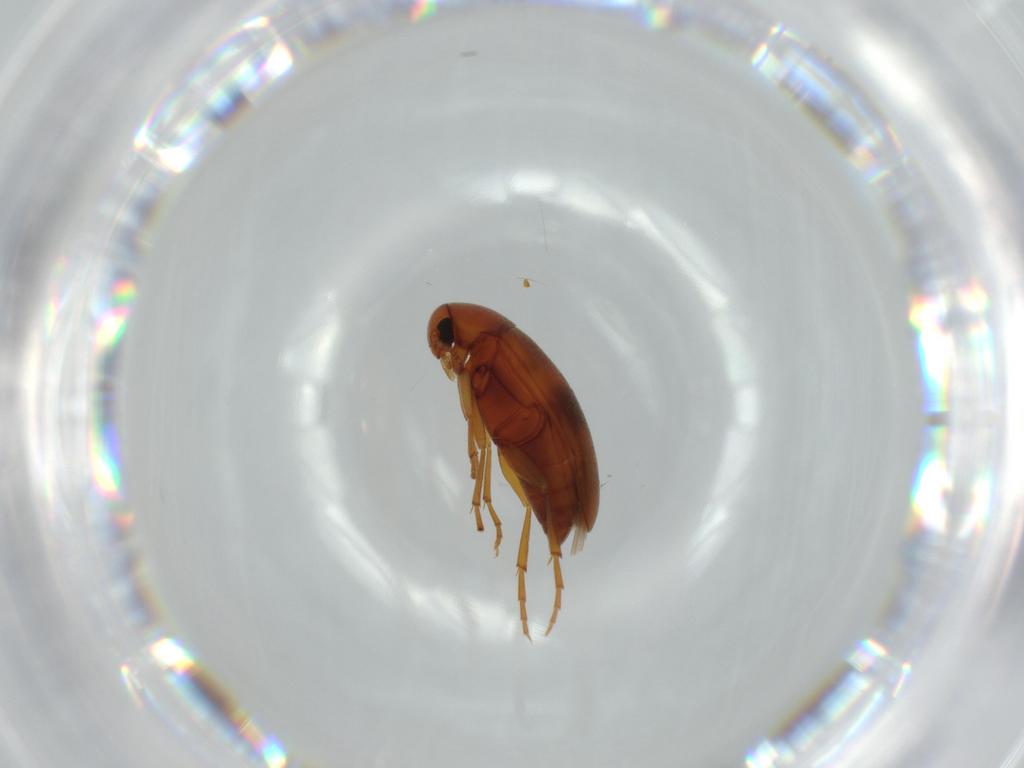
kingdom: Animalia
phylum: Arthropoda
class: Insecta
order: Coleoptera
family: Scraptiidae
